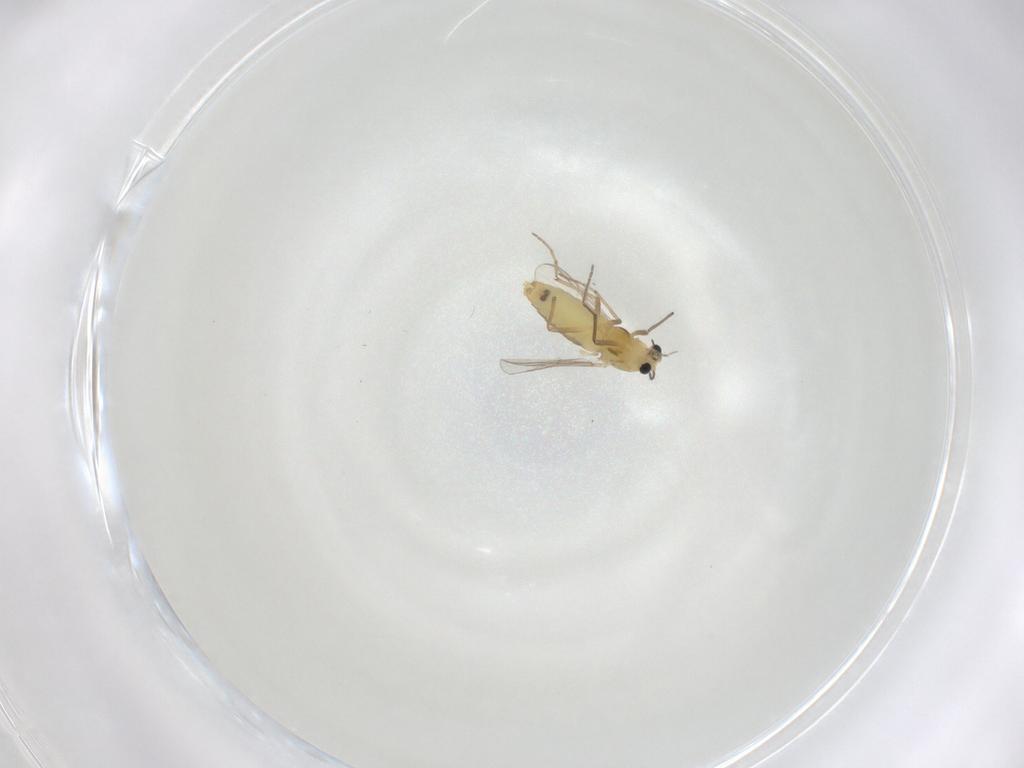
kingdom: Animalia
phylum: Arthropoda
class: Insecta
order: Diptera
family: Chironomidae
